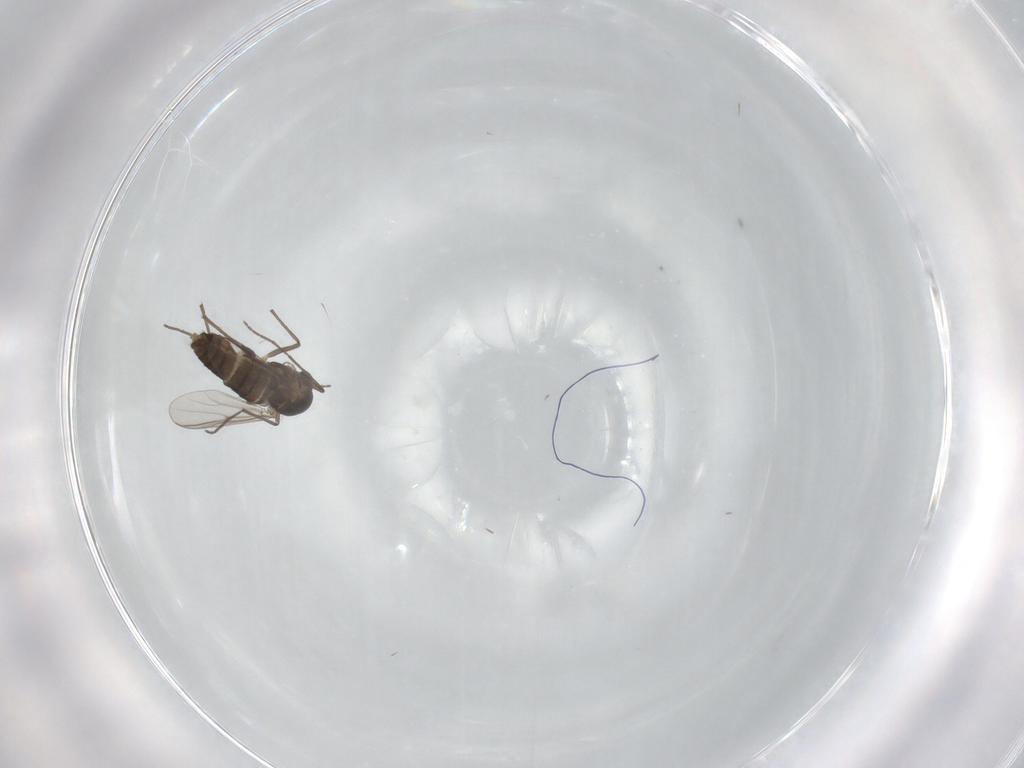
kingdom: Animalia
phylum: Arthropoda
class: Insecta
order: Diptera
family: Chironomidae
